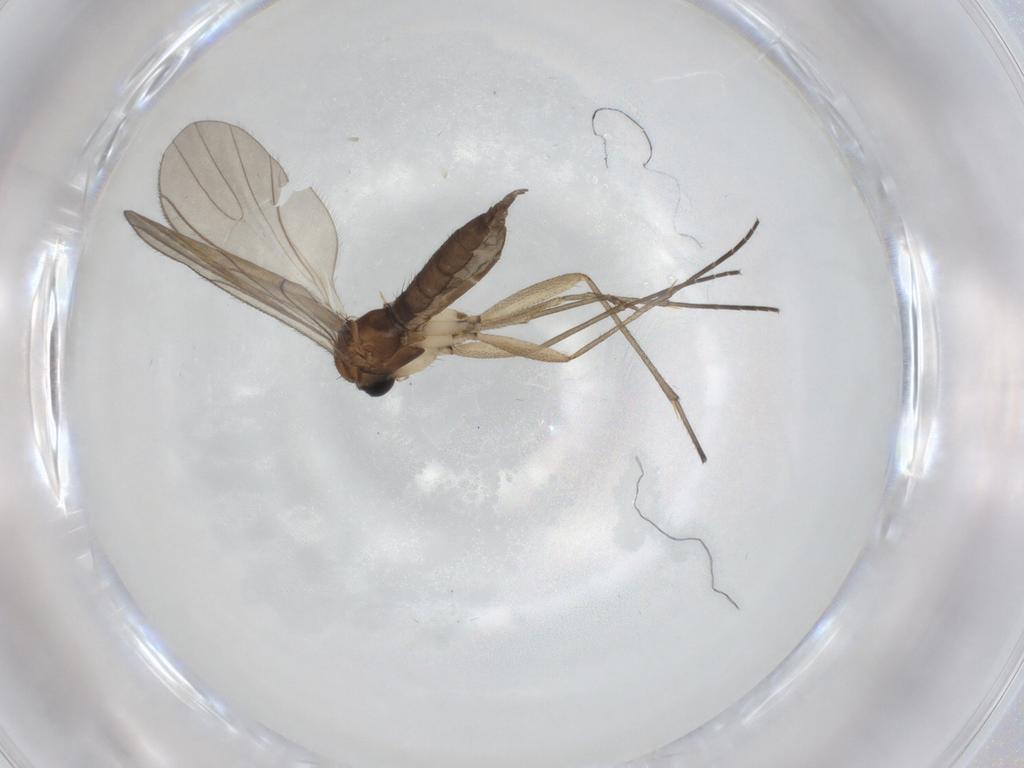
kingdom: Animalia
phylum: Arthropoda
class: Insecta
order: Diptera
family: Sciaridae
